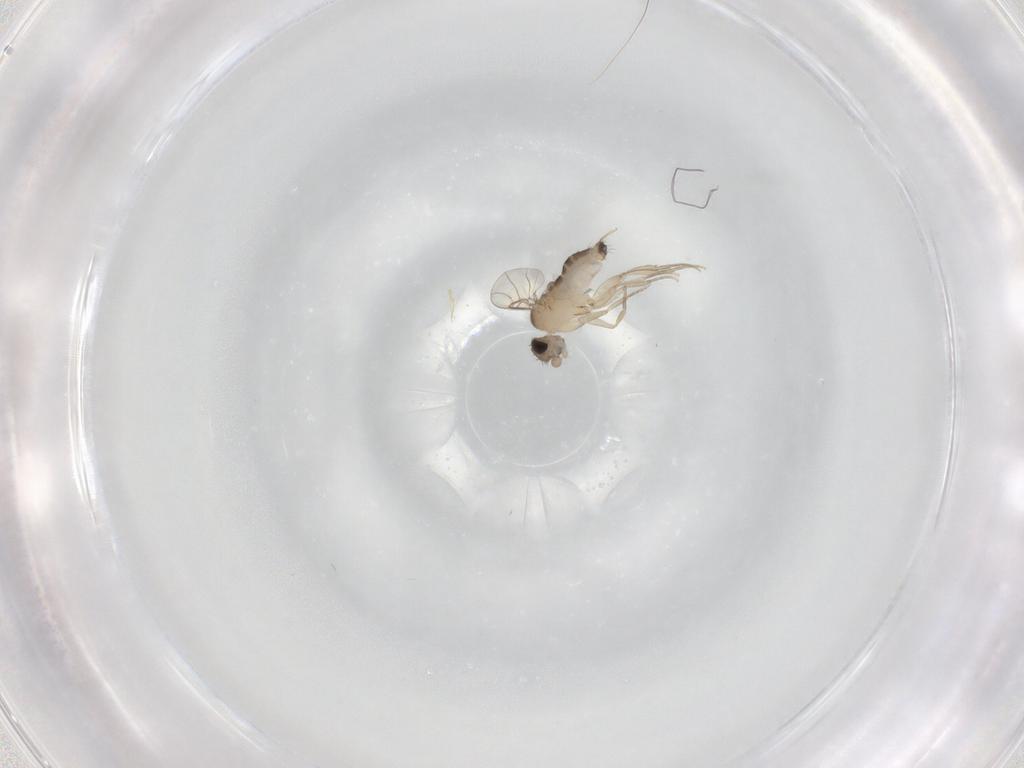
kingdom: Animalia
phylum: Arthropoda
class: Insecta
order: Diptera
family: Phoridae
